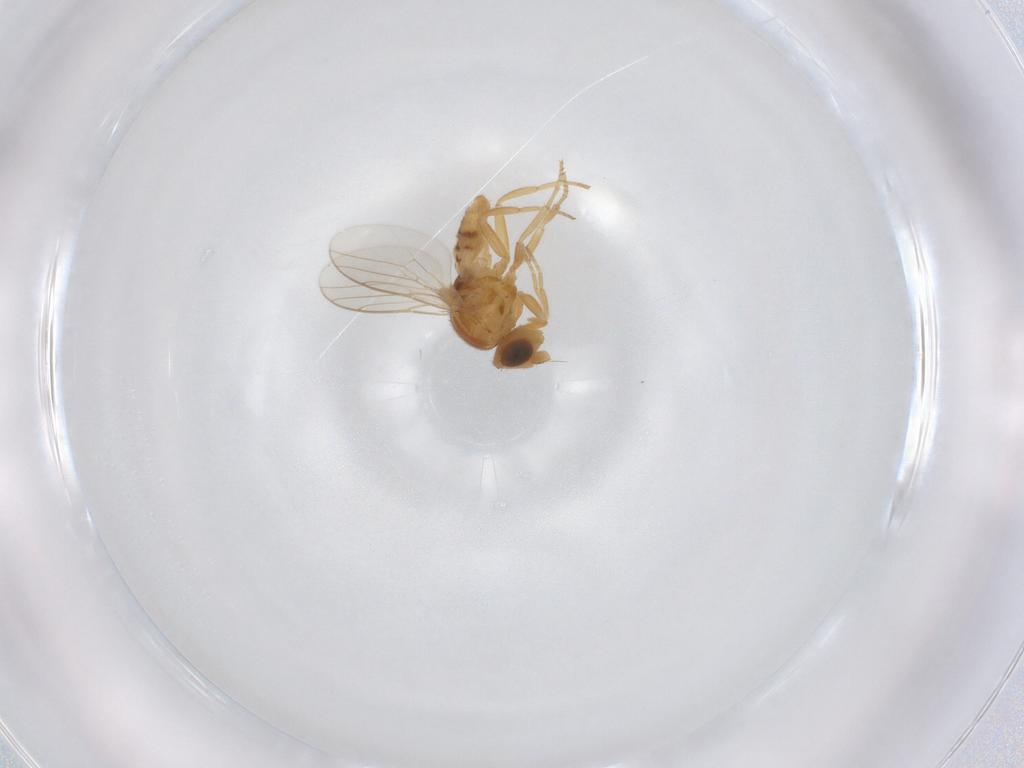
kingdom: Animalia
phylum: Arthropoda
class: Insecta
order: Diptera
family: Chloropidae
